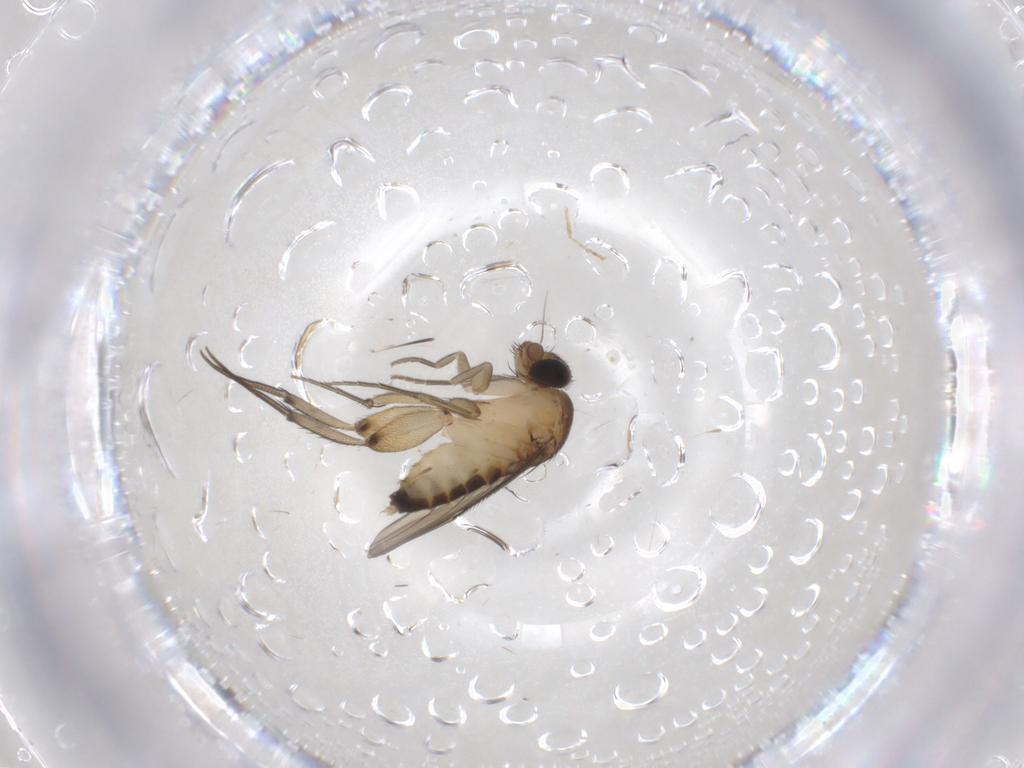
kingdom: Animalia
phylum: Arthropoda
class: Insecta
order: Diptera
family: Phoridae
